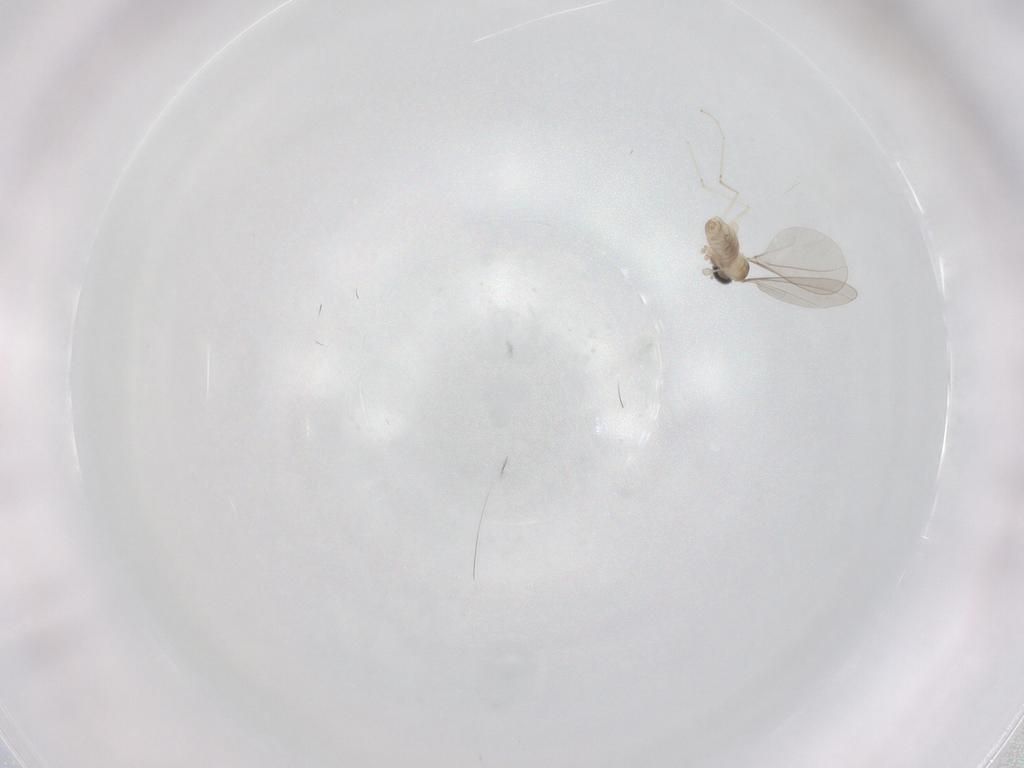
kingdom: Animalia
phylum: Arthropoda
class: Insecta
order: Diptera
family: Cecidomyiidae
